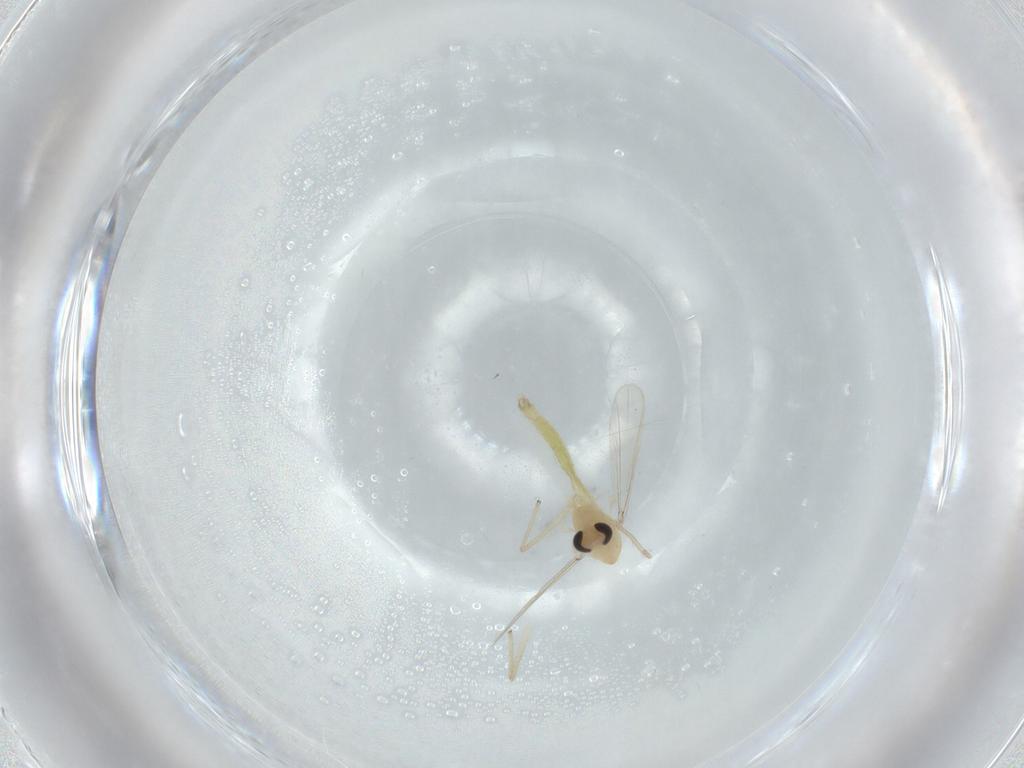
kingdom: Animalia
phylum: Arthropoda
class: Insecta
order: Diptera
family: Chironomidae
